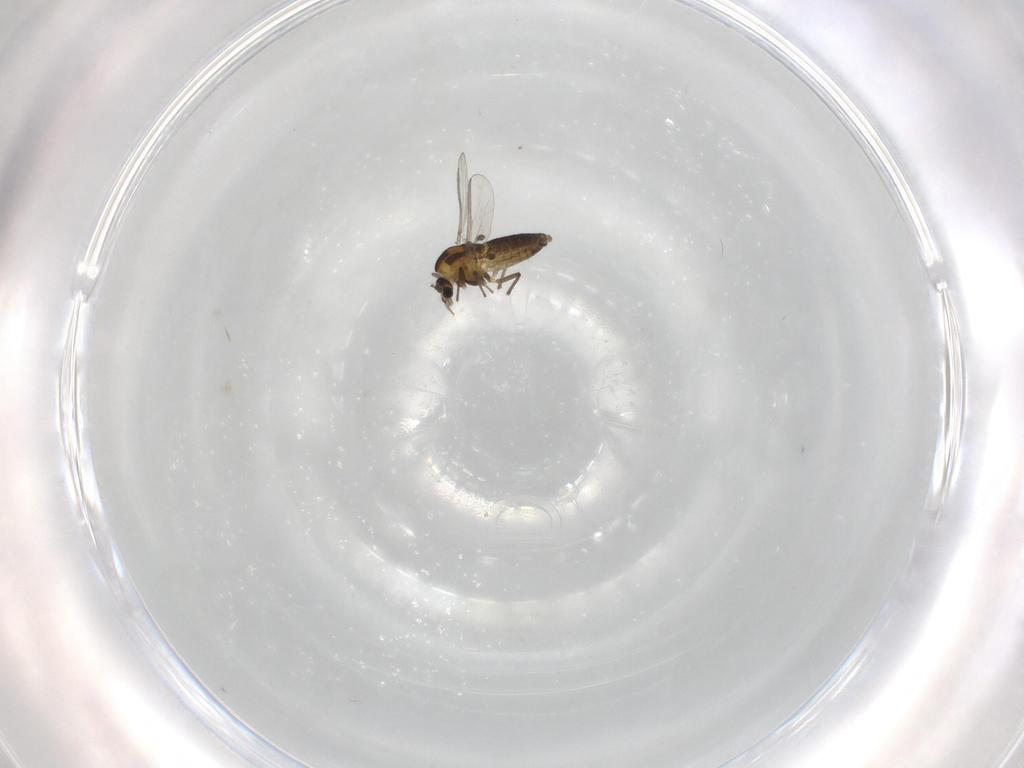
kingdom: Animalia
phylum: Arthropoda
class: Insecta
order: Diptera
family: Chironomidae
